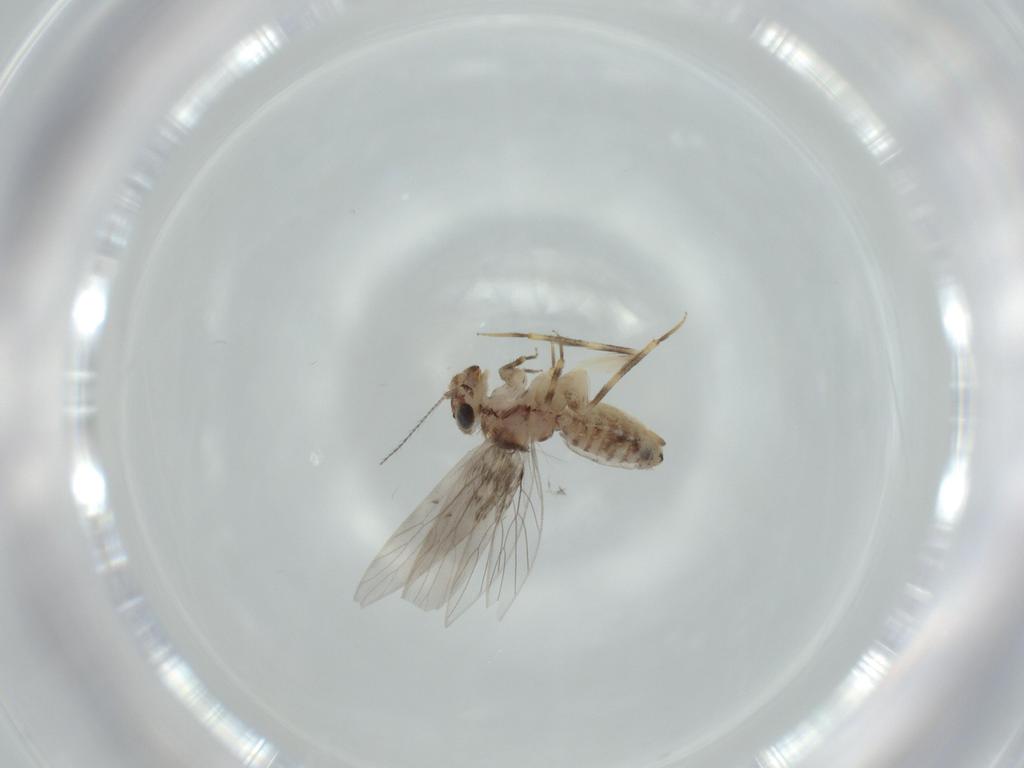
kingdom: Animalia
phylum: Arthropoda
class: Insecta
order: Psocodea
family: Lepidopsocidae
